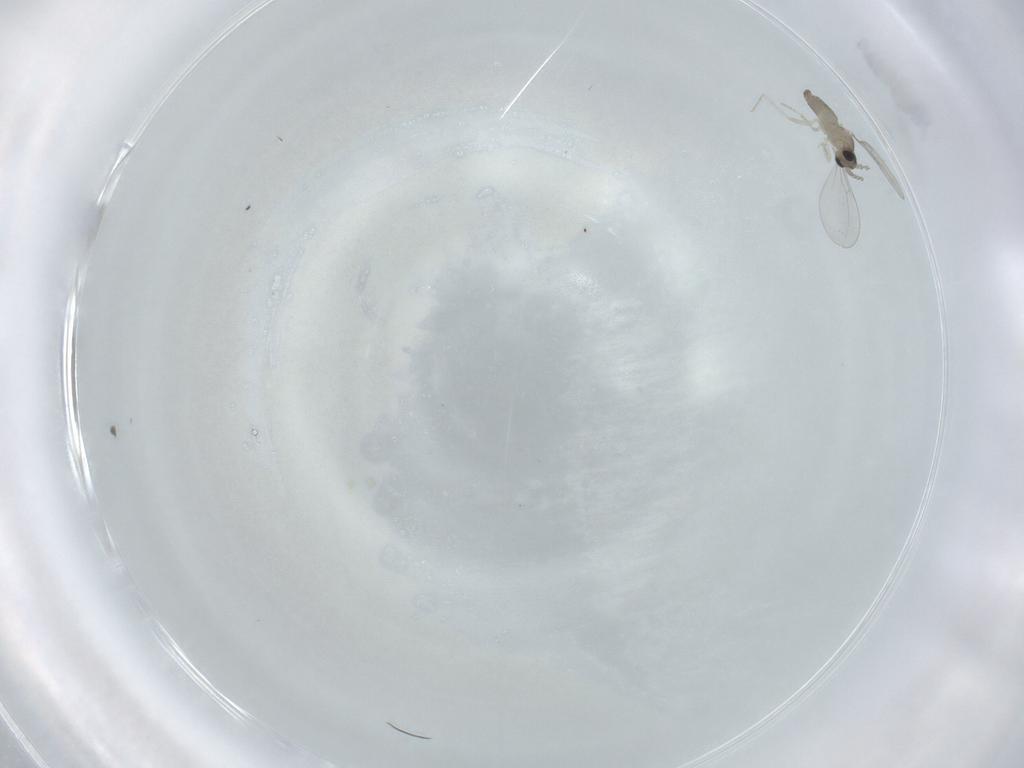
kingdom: Animalia
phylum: Arthropoda
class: Insecta
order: Diptera
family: Cecidomyiidae
